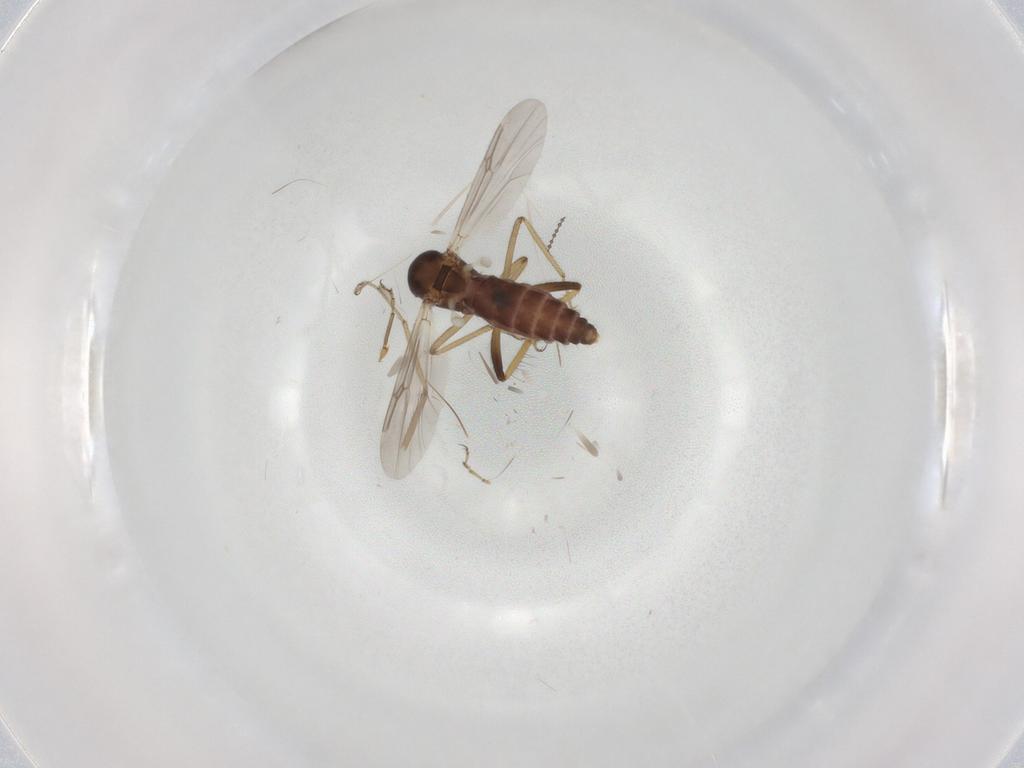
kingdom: Animalia
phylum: Arthropoda
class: Insecta
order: Diptera
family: Ceratopogonidae
